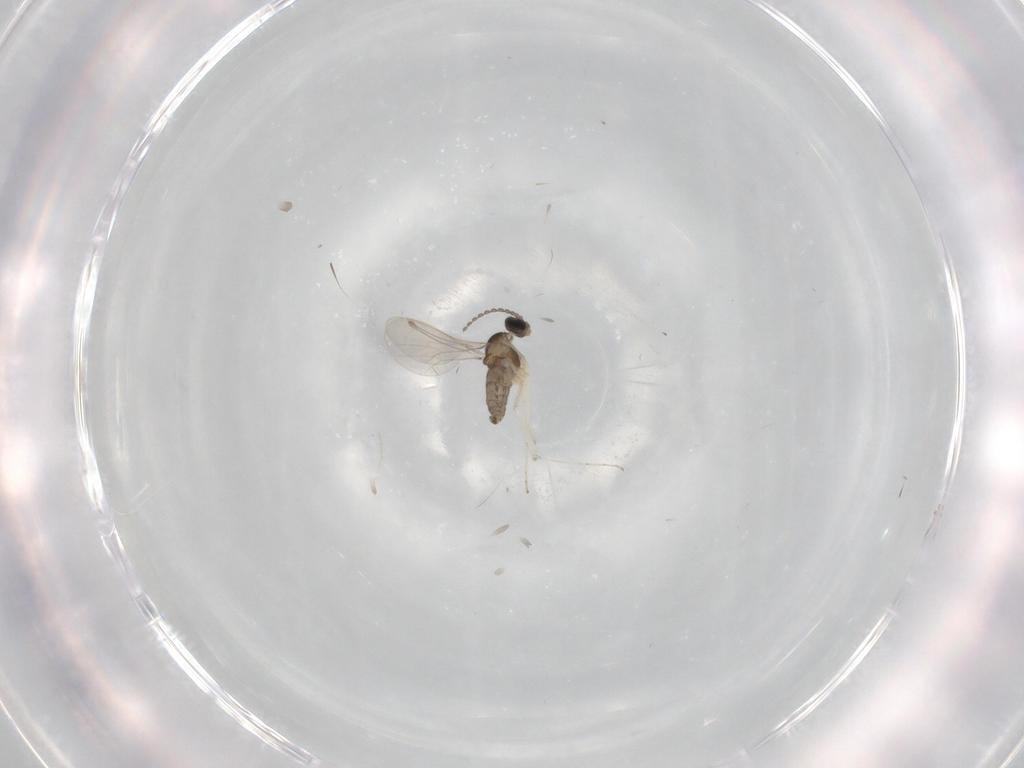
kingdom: Animalia
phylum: Arthropoda
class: Insecta
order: Diptera
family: Cecidomyiidae
